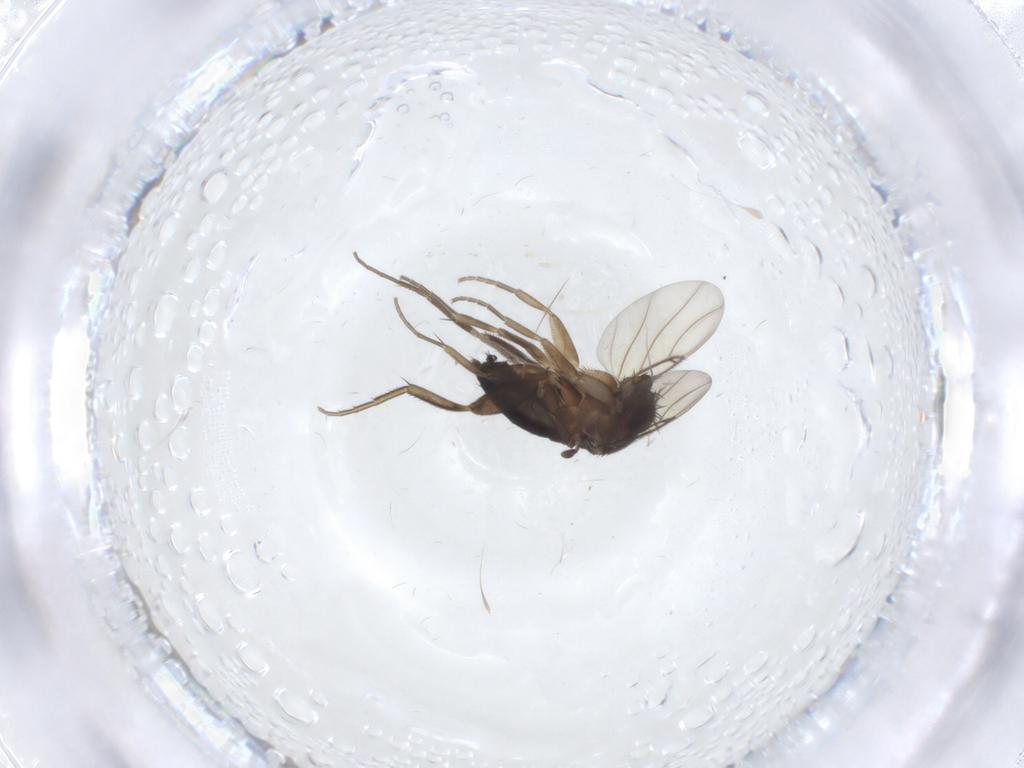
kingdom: Animalia
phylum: Arthropoda
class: Insecta
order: Diptera
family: Phoridae
